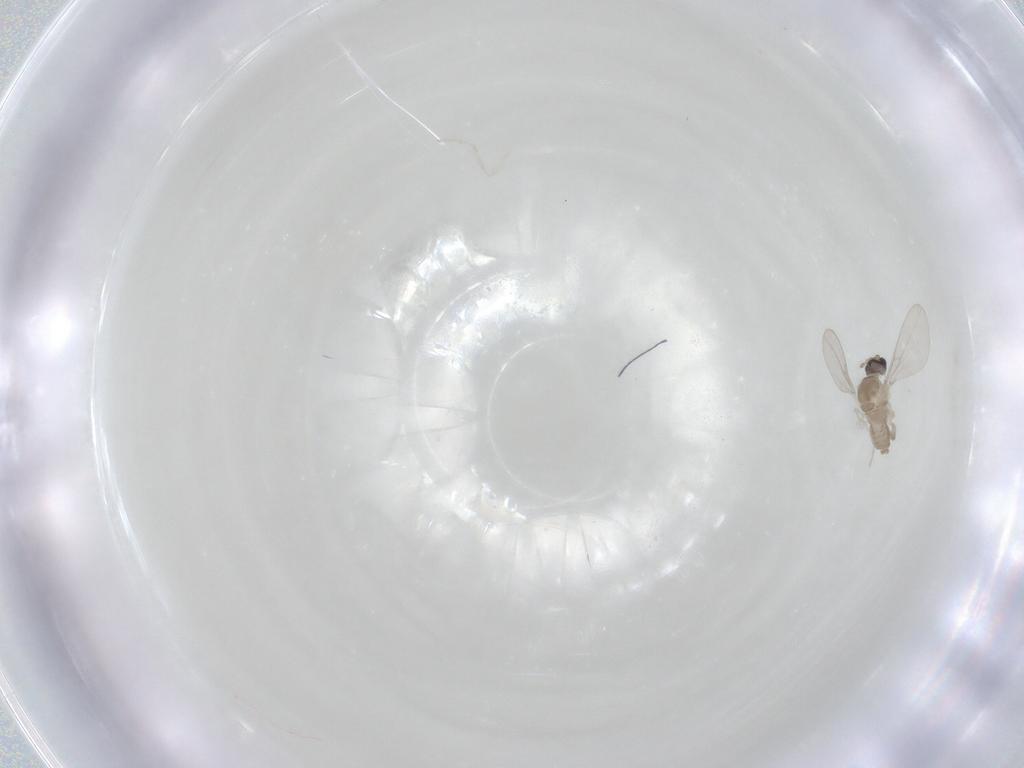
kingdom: Animalia
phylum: Arthropoda
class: Insecta
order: Diptera
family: Cecidomyiidae
